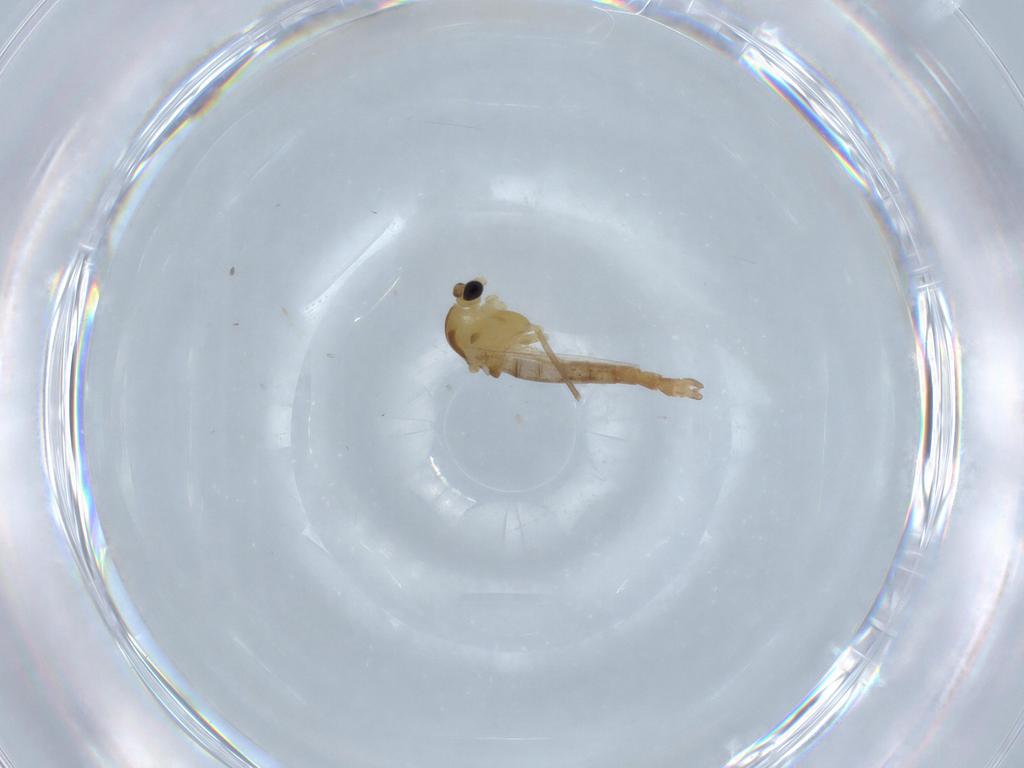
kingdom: Animalia
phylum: Arthropoda
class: Insecta
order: Diptera
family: Chironomidae
